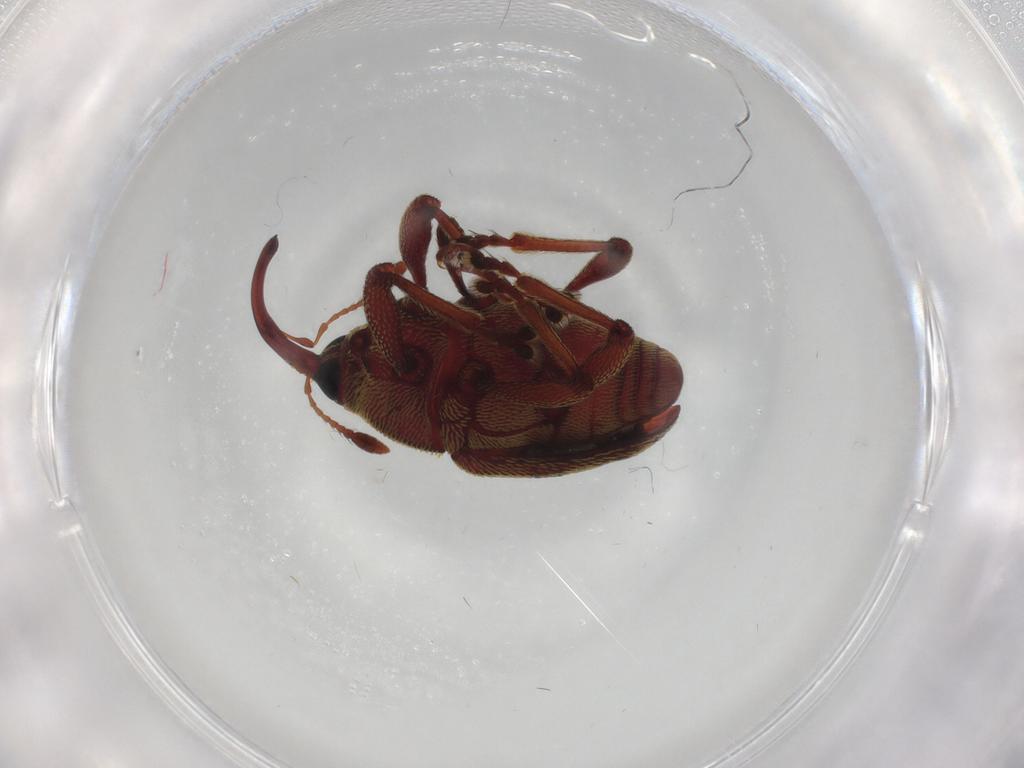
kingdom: Animalia
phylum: Arthropoda
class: Insecta
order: Coleoptera
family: Curculionidae
